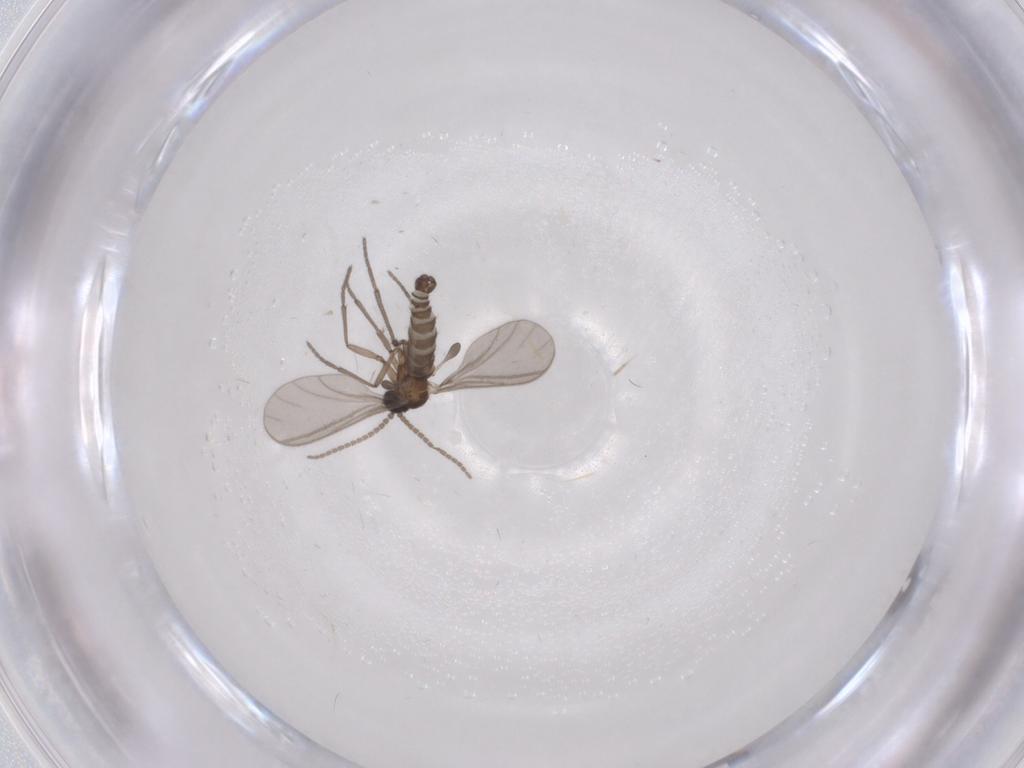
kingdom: Animalia
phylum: Arthropoda
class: Insecta
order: Diptera
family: Sciaridae
